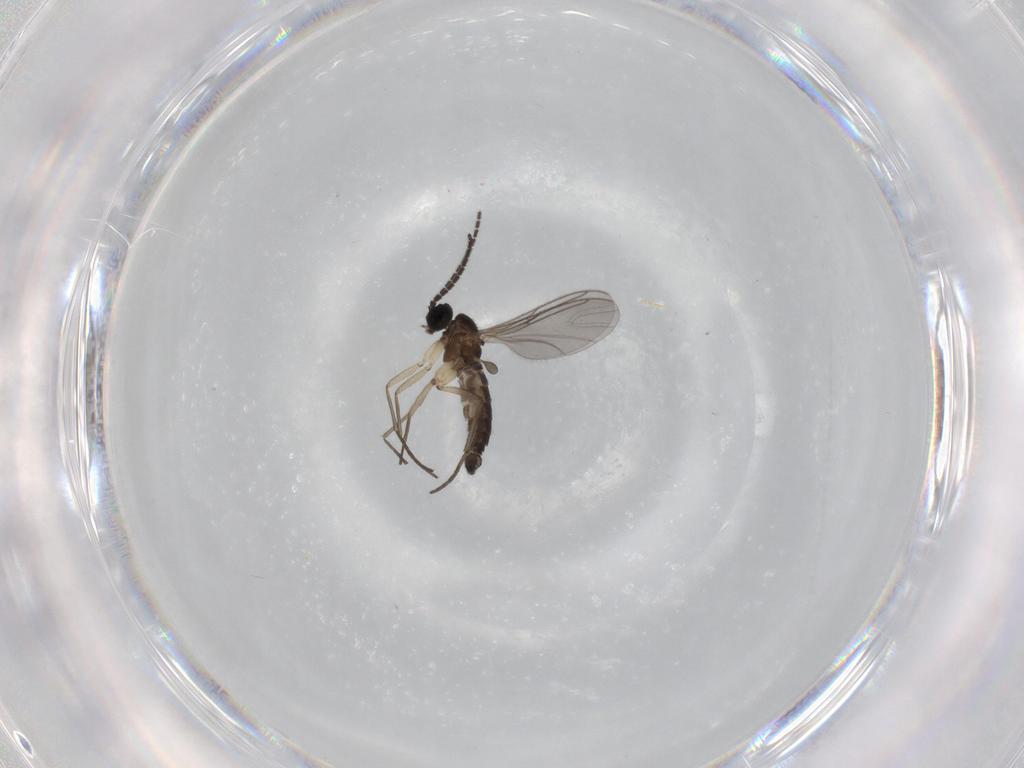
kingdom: Animalia
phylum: Arthropoda
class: Insecta
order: Diptera
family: Sciaridae
